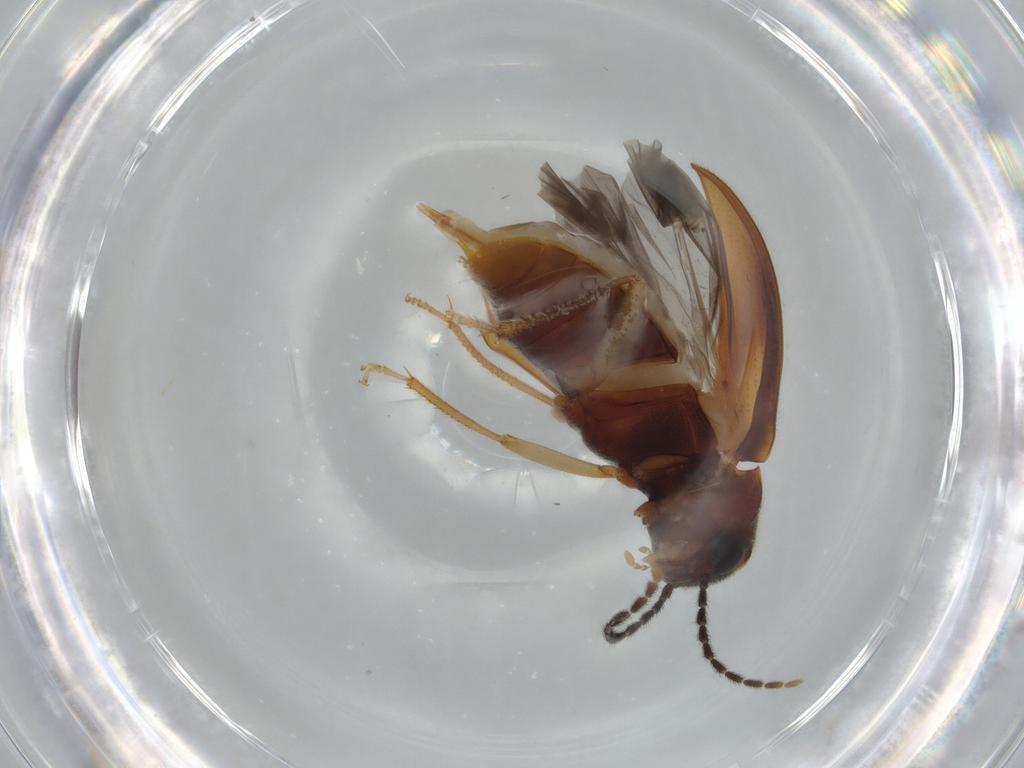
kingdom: Animalia
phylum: Arthropoda
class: Insecta
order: Coleoptera
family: Ptilodactylidae
